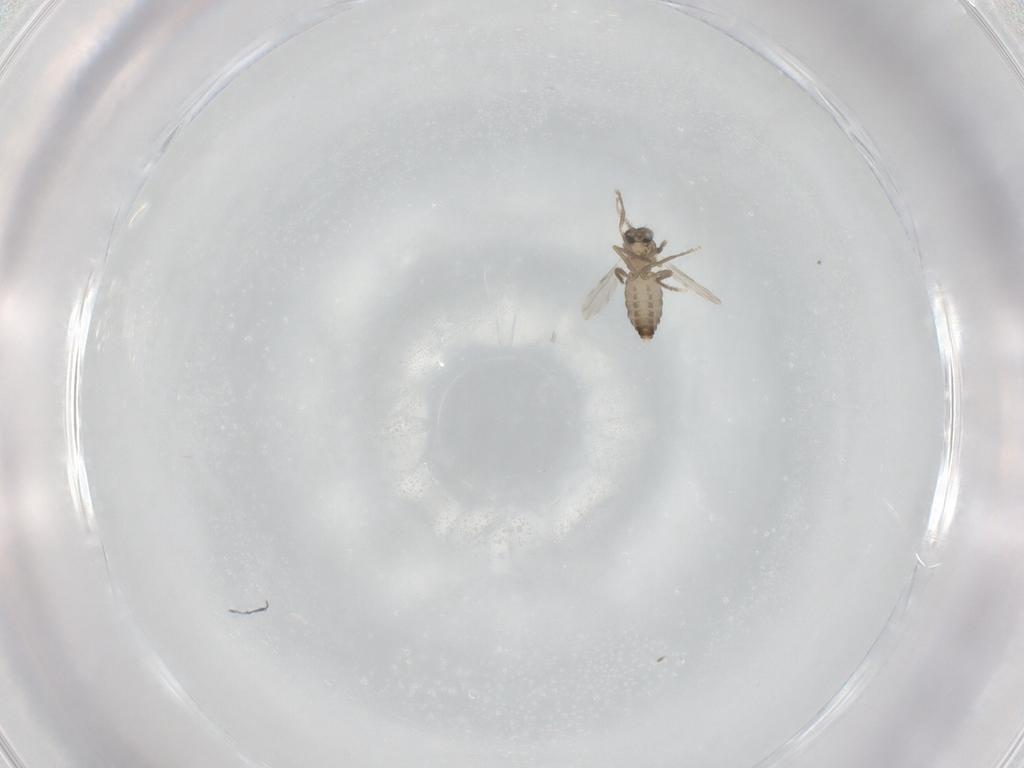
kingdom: Animalia
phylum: Arthropoda
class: Insecta
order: Diptera
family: Ceratopogonidae
